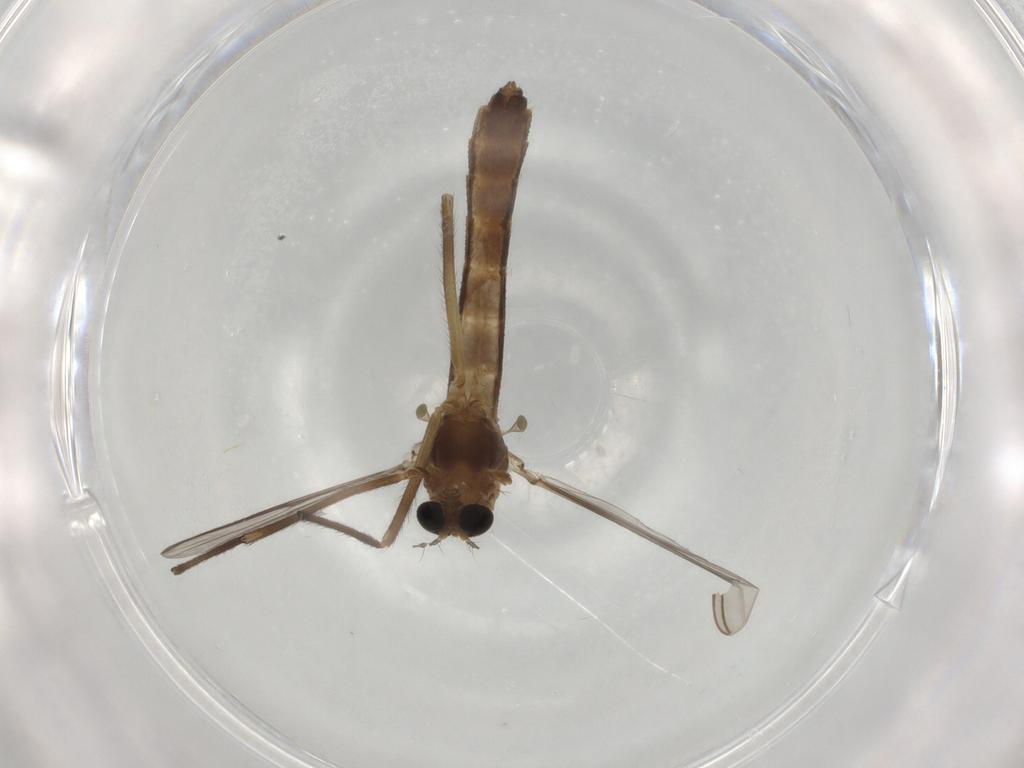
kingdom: Animalia
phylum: Arthropoda
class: Insecta
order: Diptera
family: Chironomidae
